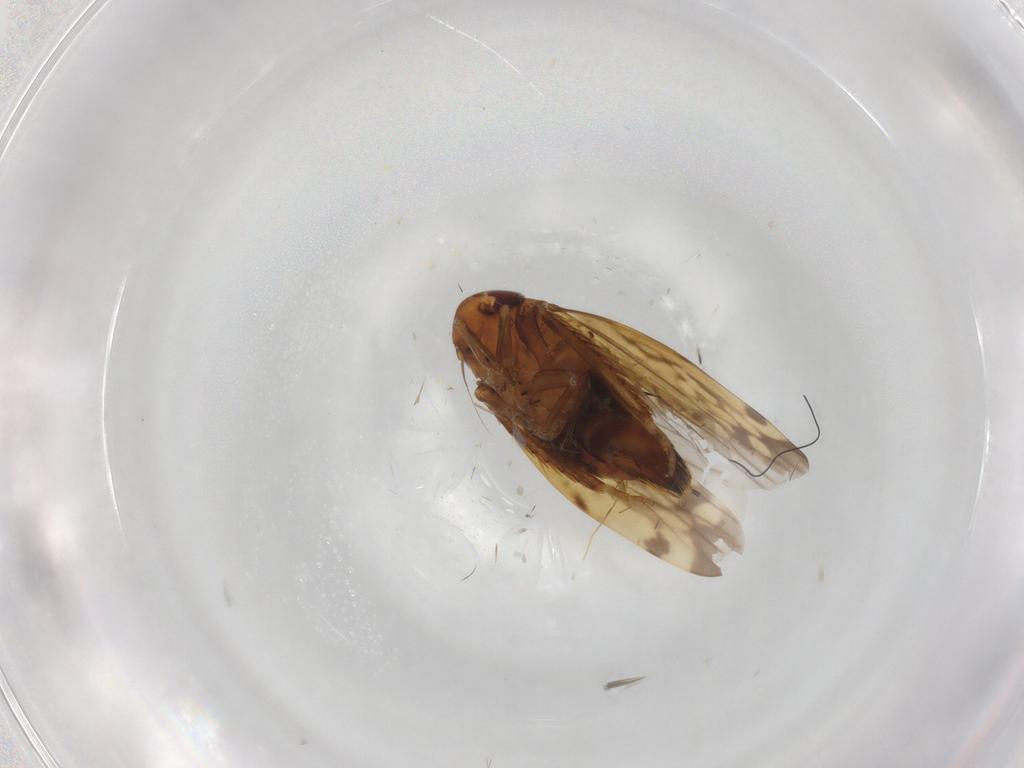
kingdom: Animalia
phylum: Arthropoda
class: Insecta
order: Hemiptera
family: Cicadellidae
